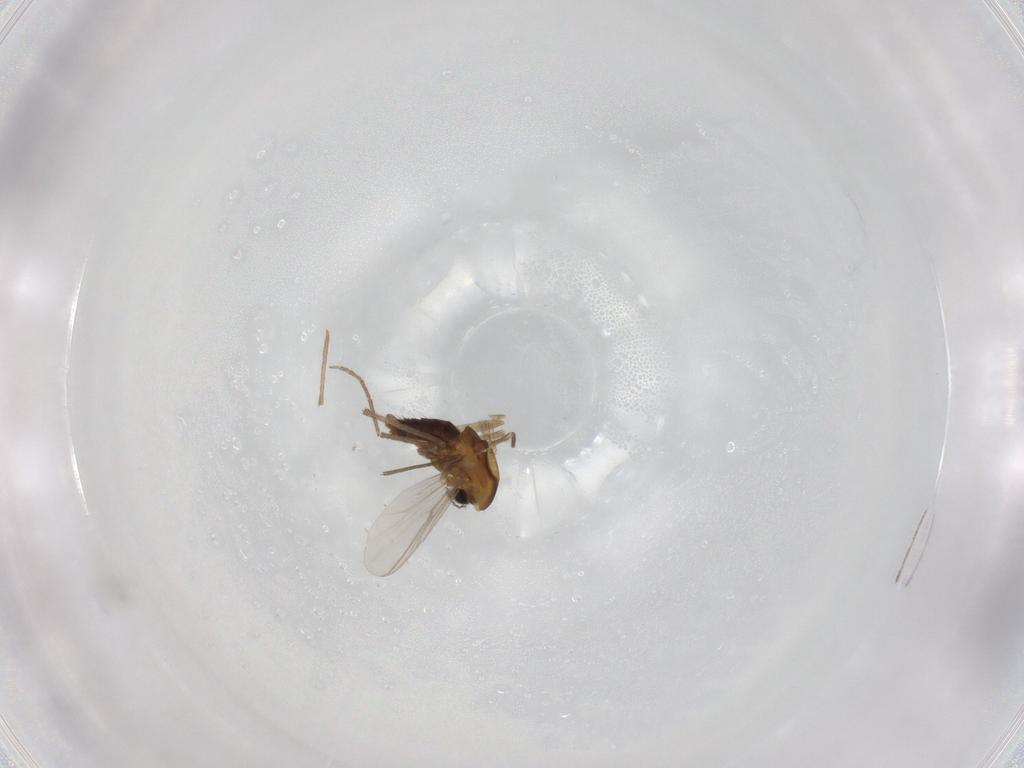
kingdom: Animalia
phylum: Arthropoda
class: Insecta
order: Diptera
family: Chironomidae
